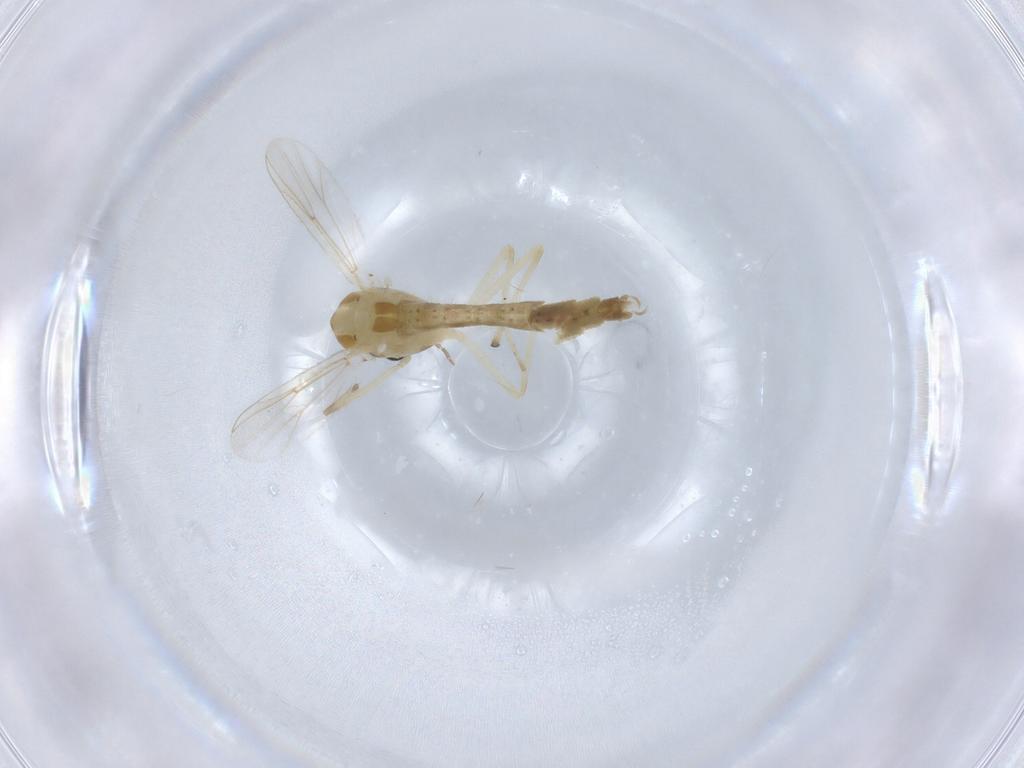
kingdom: Animalia
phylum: Arthropoda
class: Insecta
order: Diptera
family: Chironomidae
